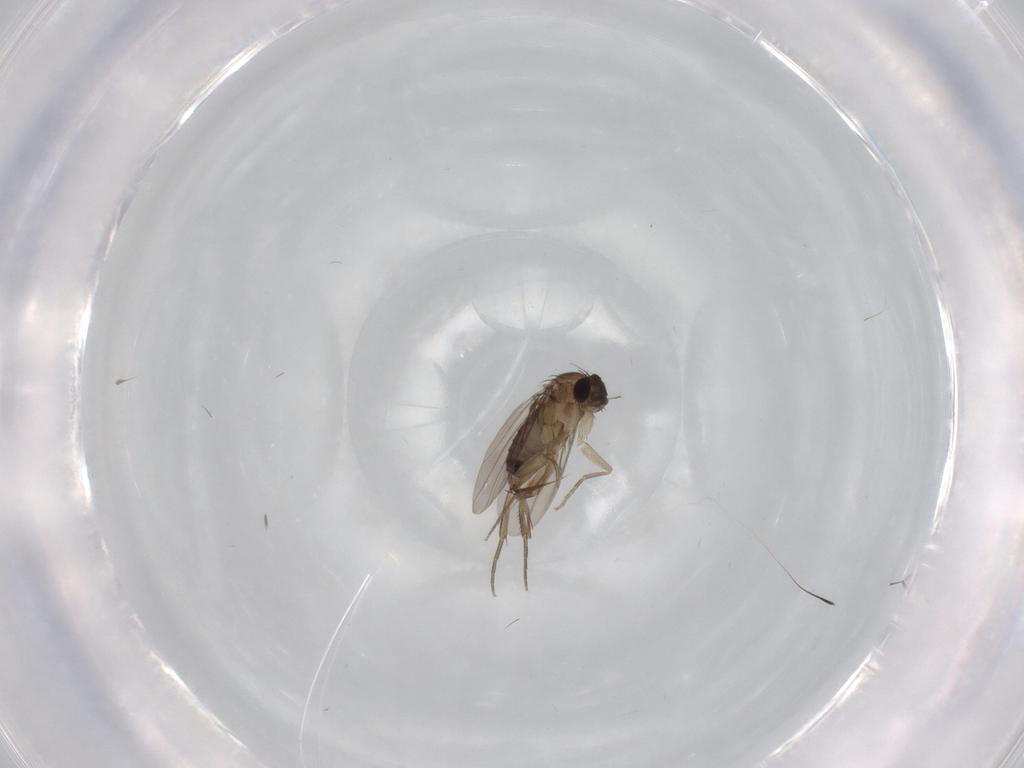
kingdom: Animalia
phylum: Arthropoda
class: Insecta
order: Diptera
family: Phoridae
